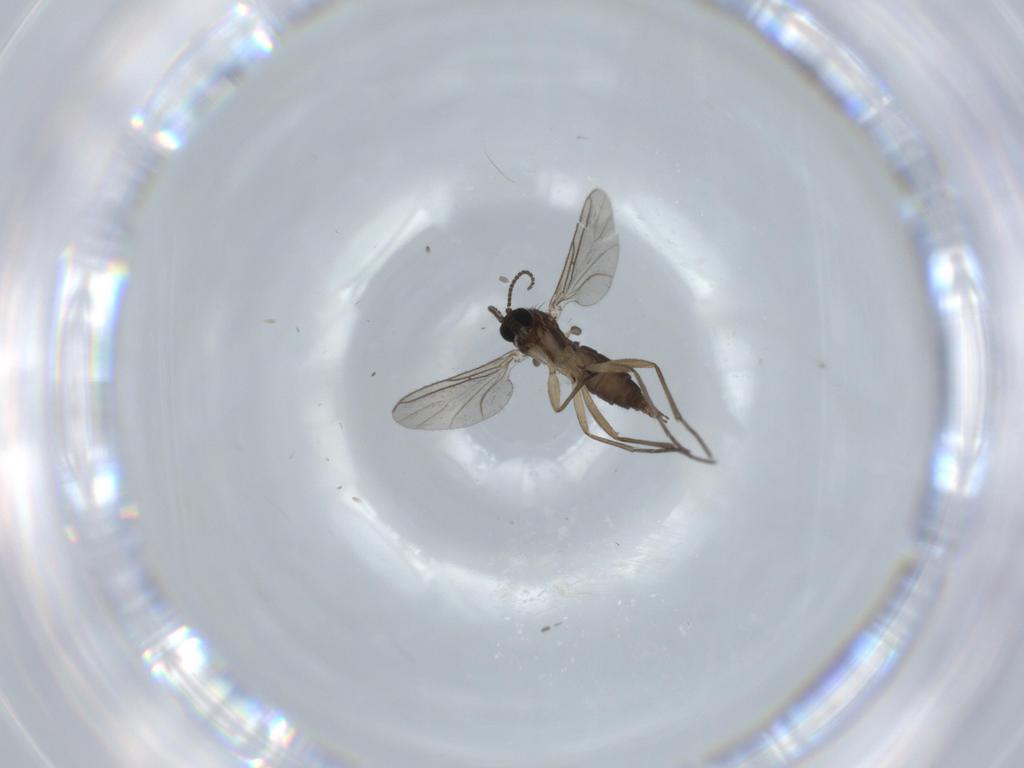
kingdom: Animalia
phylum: Arthropoda
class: Insecta
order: Diptera
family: Sciaridae
